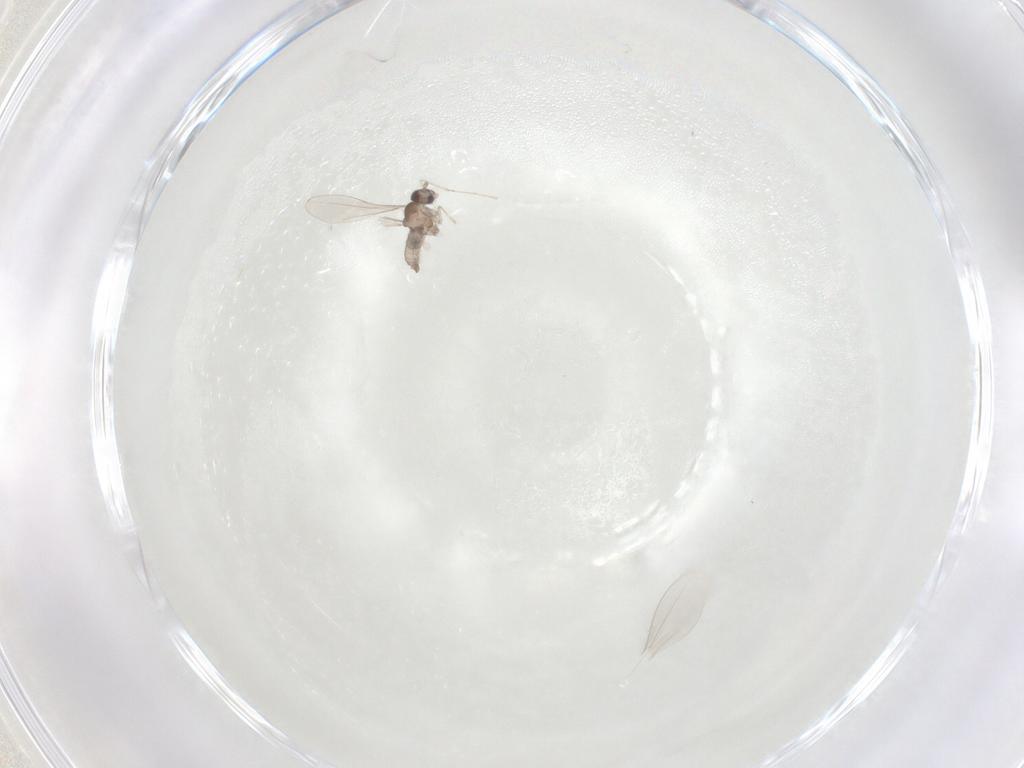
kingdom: Animalia
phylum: Arthropoda
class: Insecta
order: Diptera
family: Cecidomyiidae
